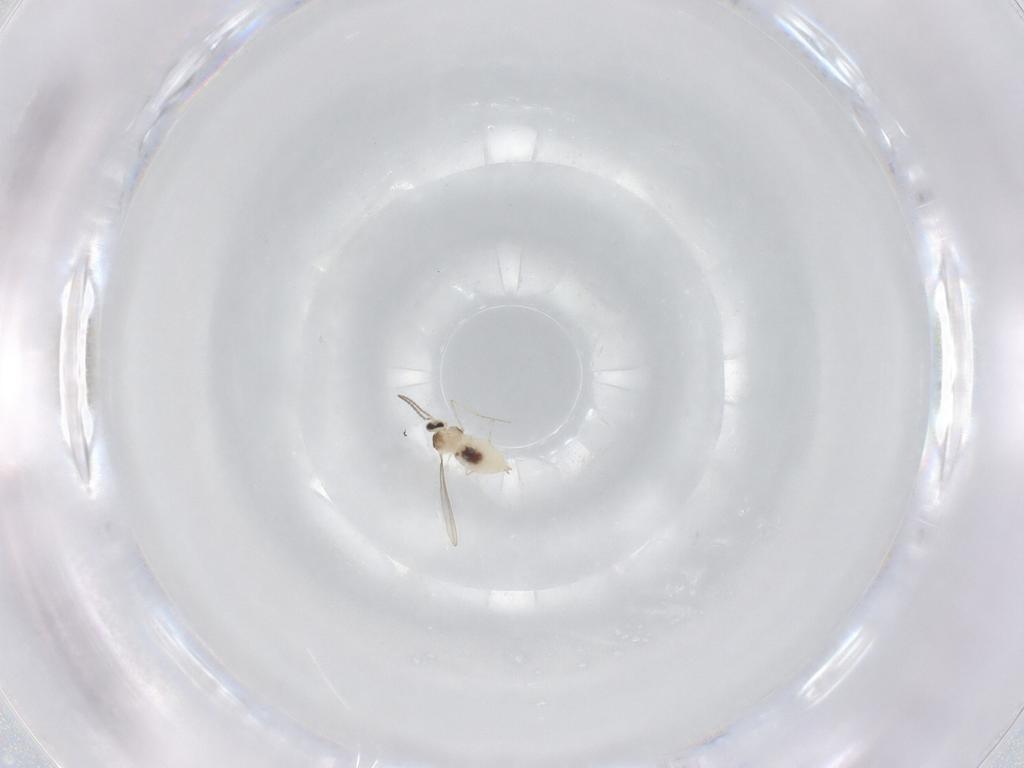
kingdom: Animalia
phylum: Arthropoda
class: Insecta
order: Diptera
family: Cecidomyiidae
